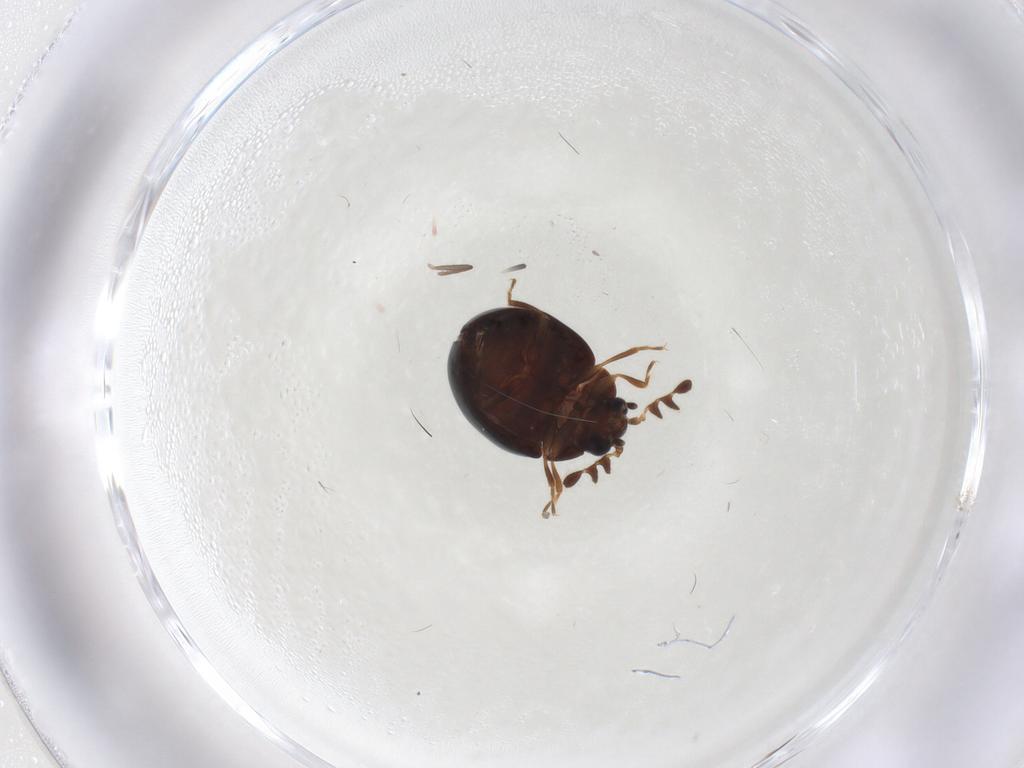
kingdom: Animalia
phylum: Arthropoda
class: Insecta
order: Coleoptera
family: Anamorphidae
